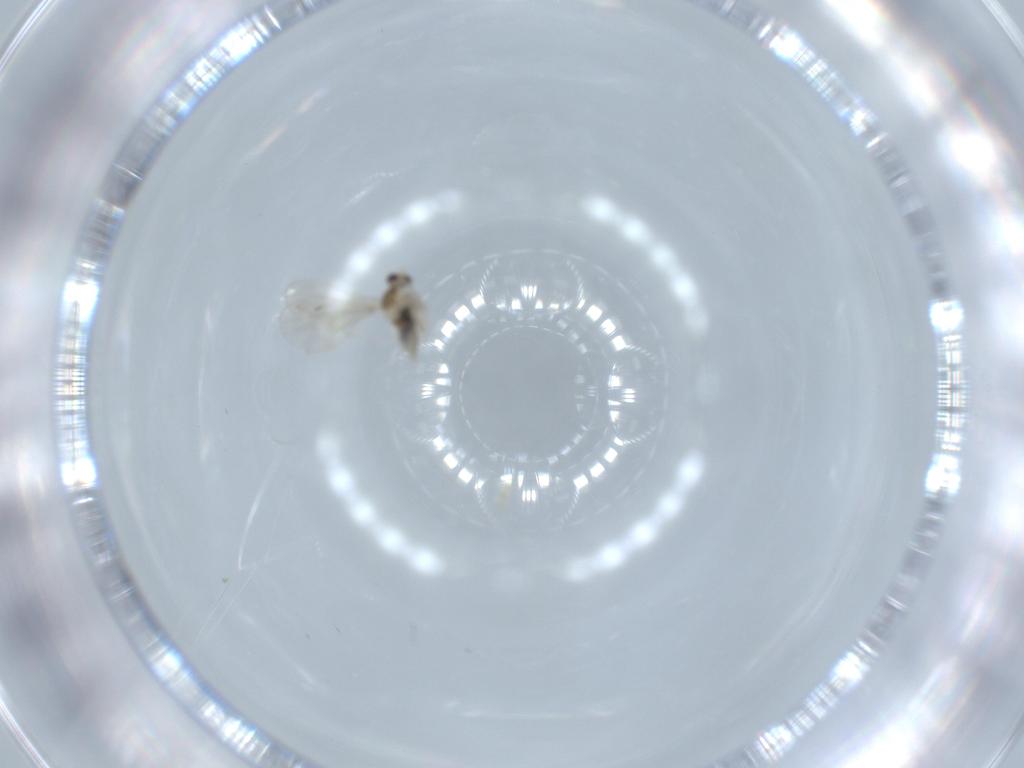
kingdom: Animalia
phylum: Arthropoda
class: Insecta
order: Diptera
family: Cecidomyiidae
